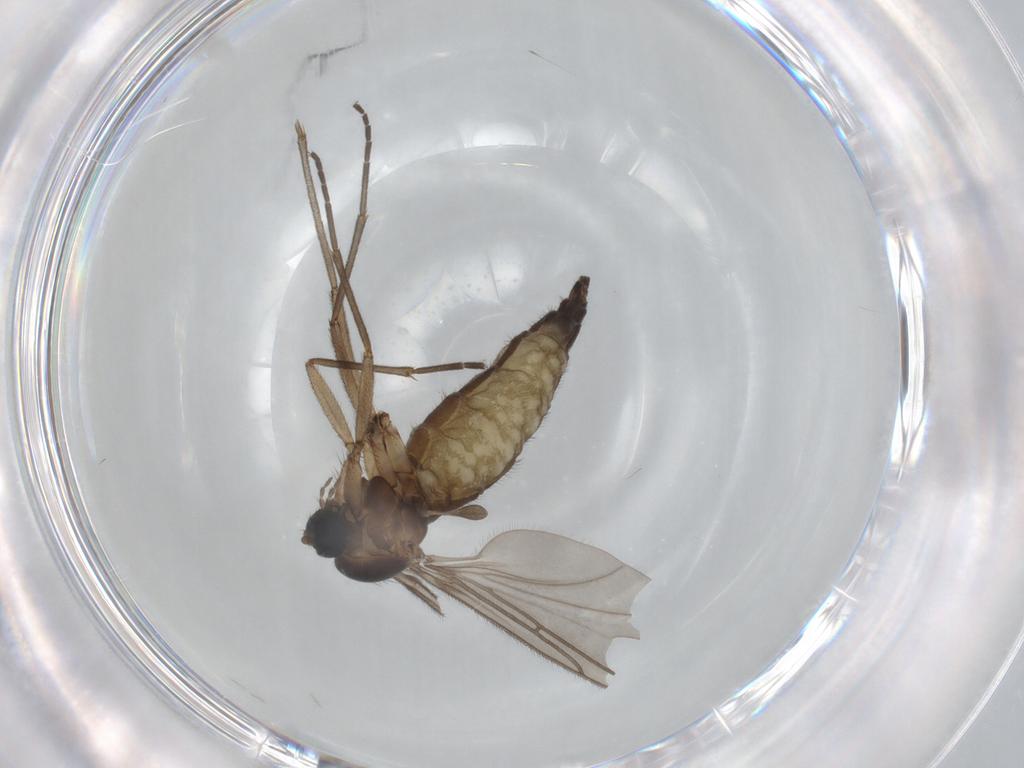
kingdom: Animalia
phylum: Arthropoda
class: Insecta
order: Diptera
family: Sciaridae
